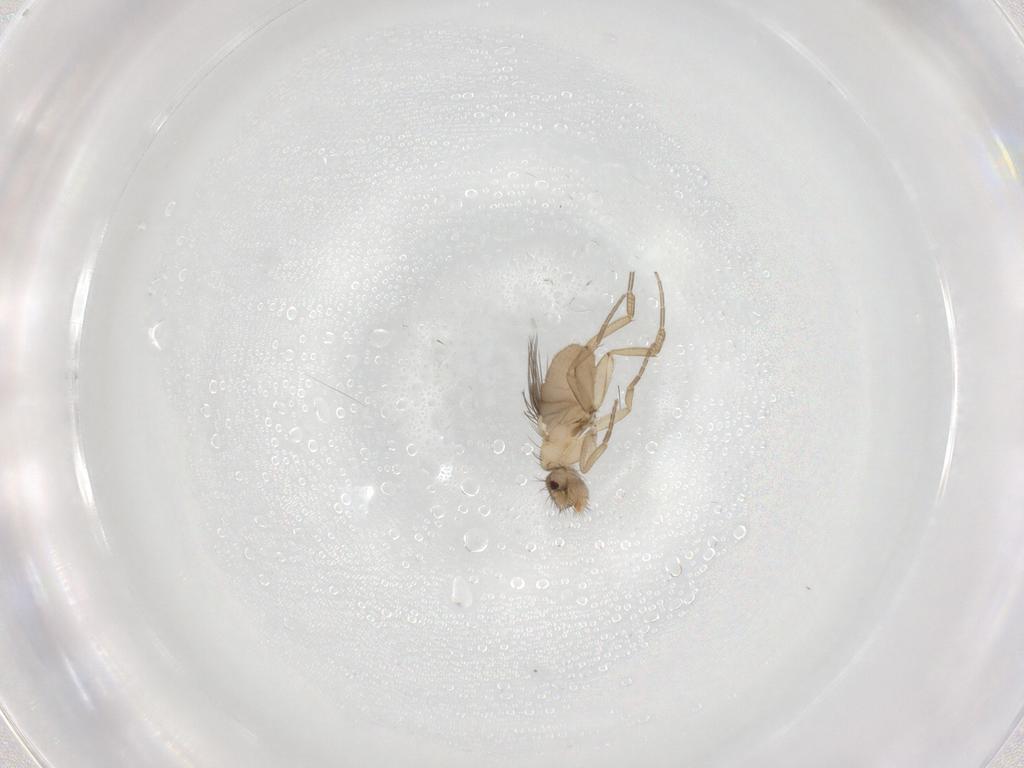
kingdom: Animalia
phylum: Arthropoda
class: Insecta
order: Diptera
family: Phoridae
